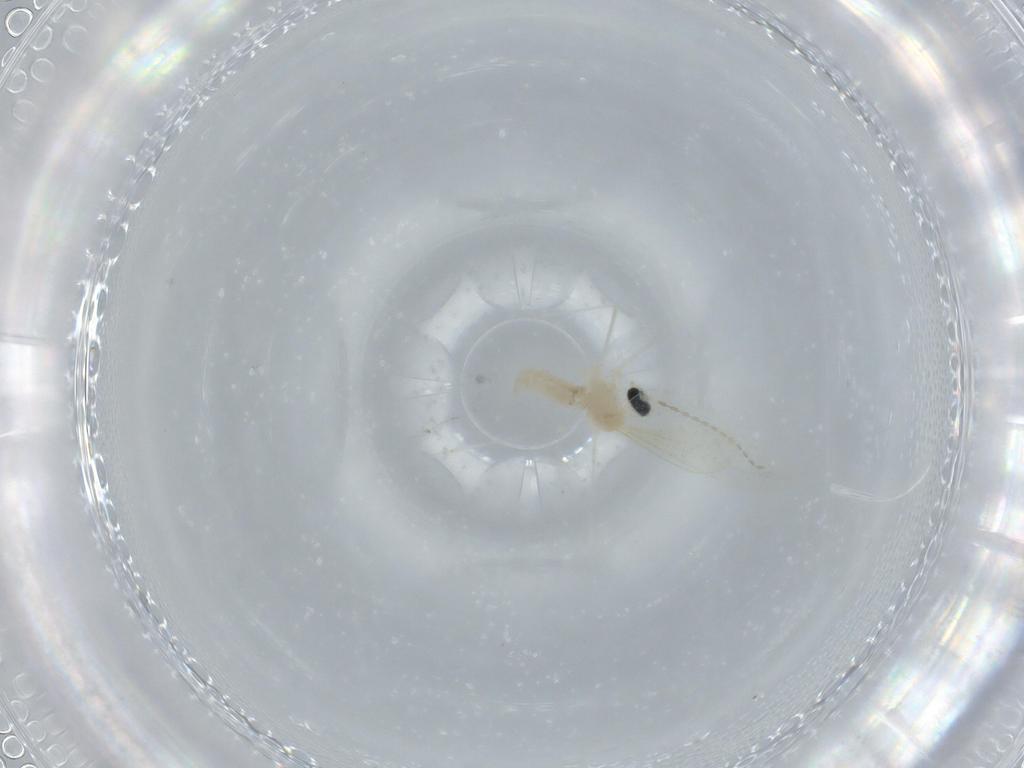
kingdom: Animalia
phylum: Arthropoda
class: Insecta
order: Diptera
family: Cecidomyiidae
